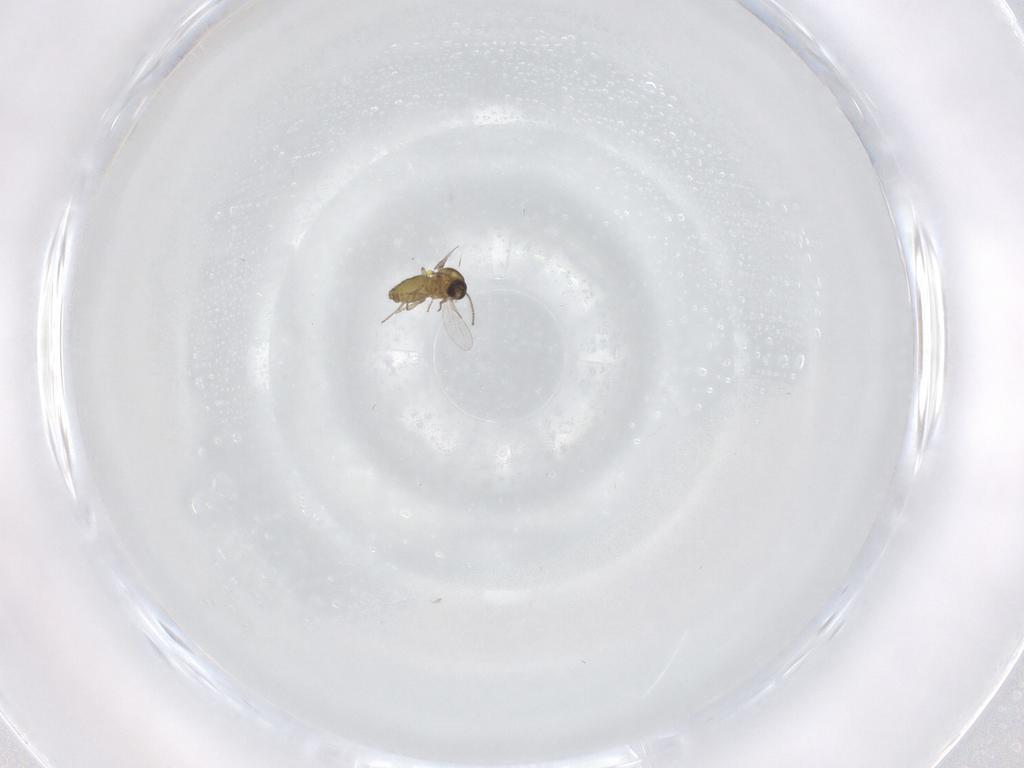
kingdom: Animalia
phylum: Arthropoda
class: Insecta
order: Diptera
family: Ceratopogonidae
